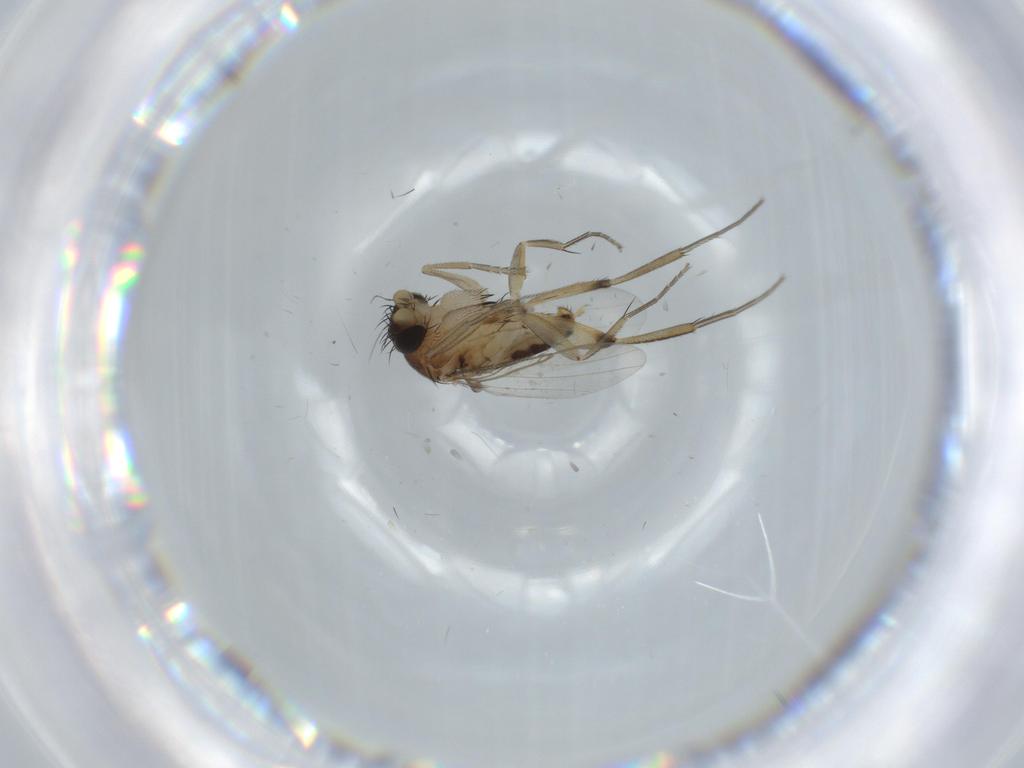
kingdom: Animalia
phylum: Arthropoda
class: Insecta
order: Diptera
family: Phoridae
